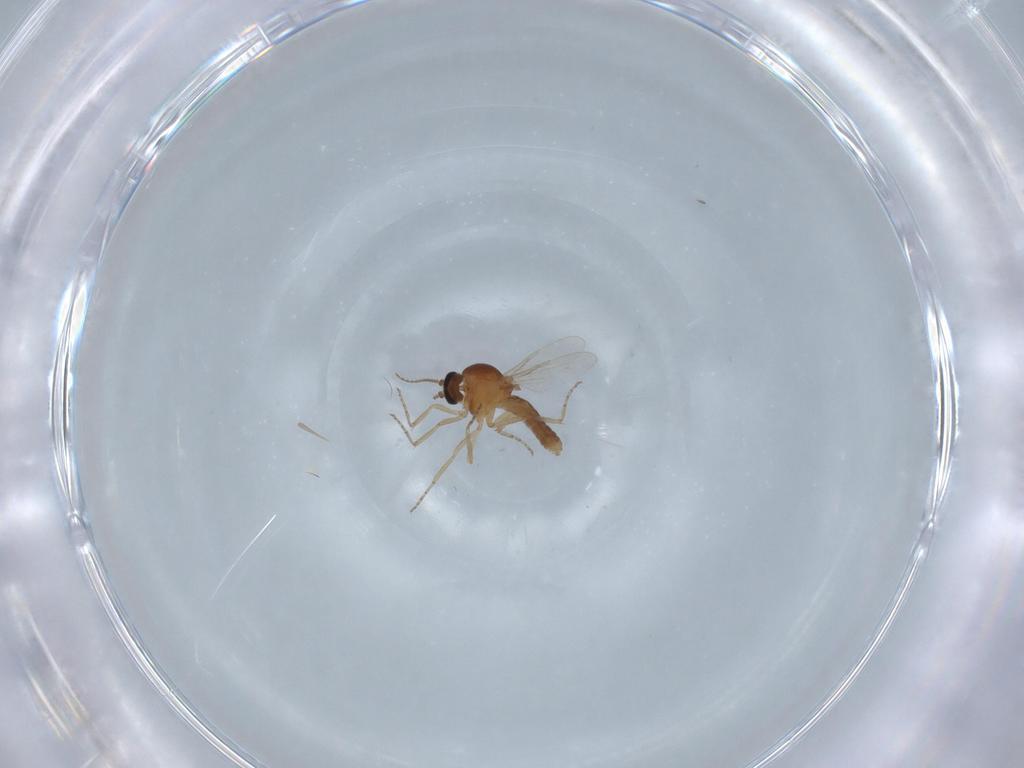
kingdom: Animalia
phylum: Arthropoda
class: Insecta
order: Diptera
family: Ceratopogonidae
